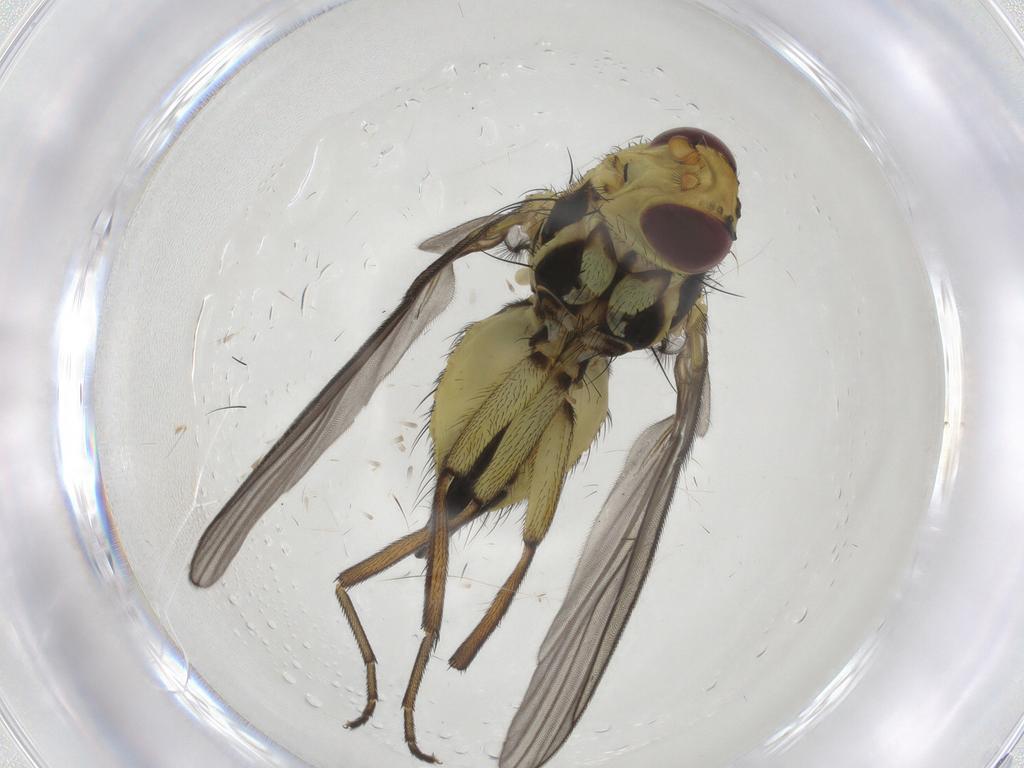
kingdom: Animalia
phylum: Arthropoda
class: Insecta
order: Diptera
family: Agromyzidae
